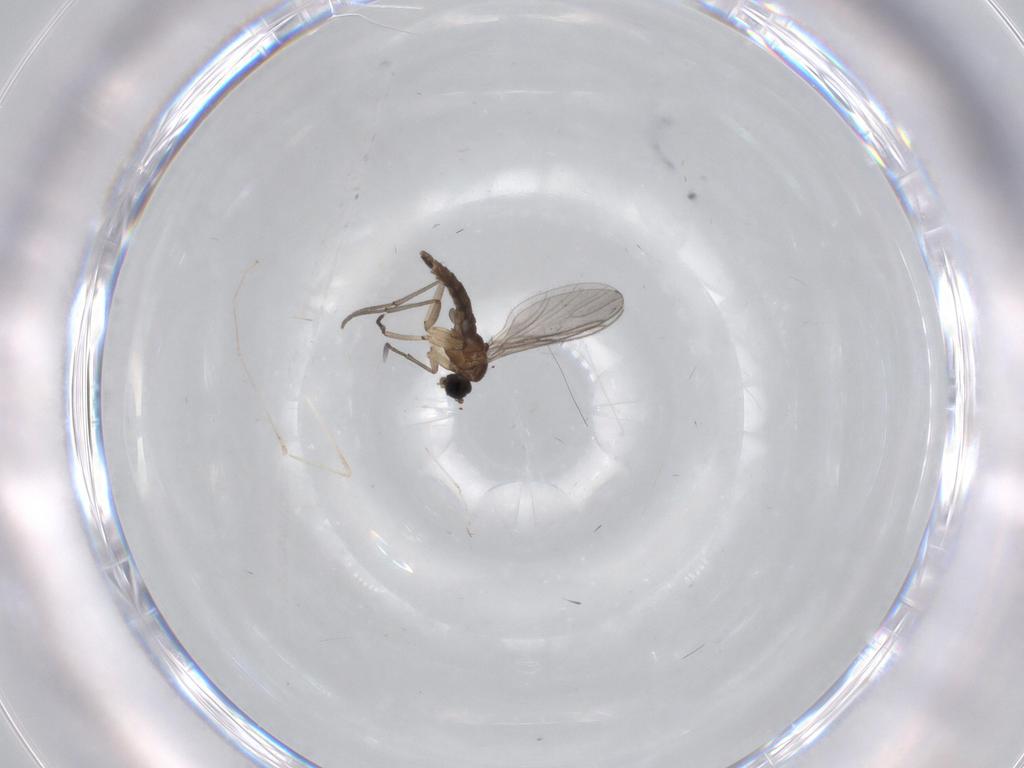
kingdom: Animalia
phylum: Arthropoda
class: Insecta
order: Diptera
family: Sciaridae
